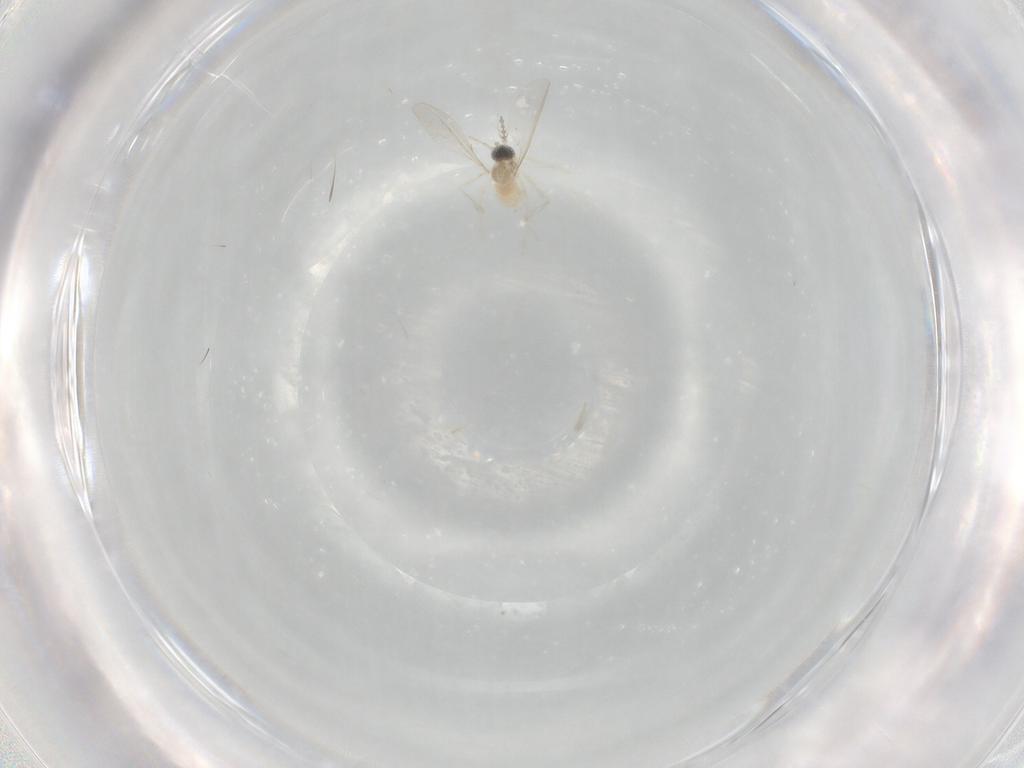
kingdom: Animalia
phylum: Arthropoda
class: Insecta
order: Diptera
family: Cecidomyiidae
